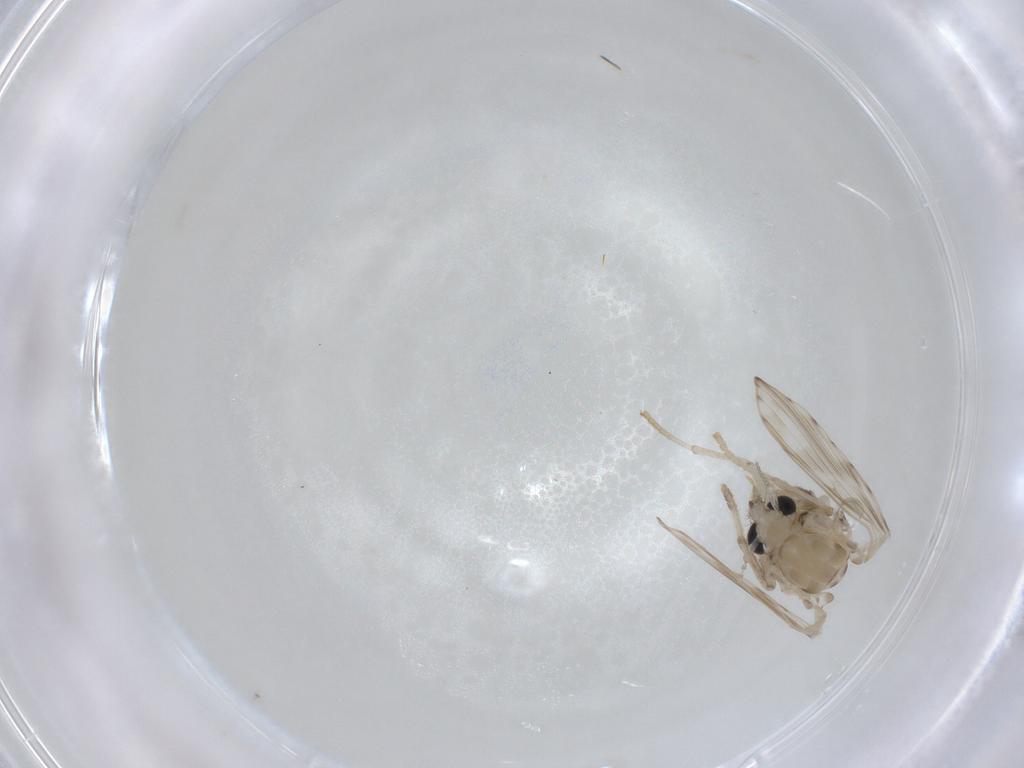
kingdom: Animalia
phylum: Arthropoda
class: Insecta
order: Diptera
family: Psychodidae
